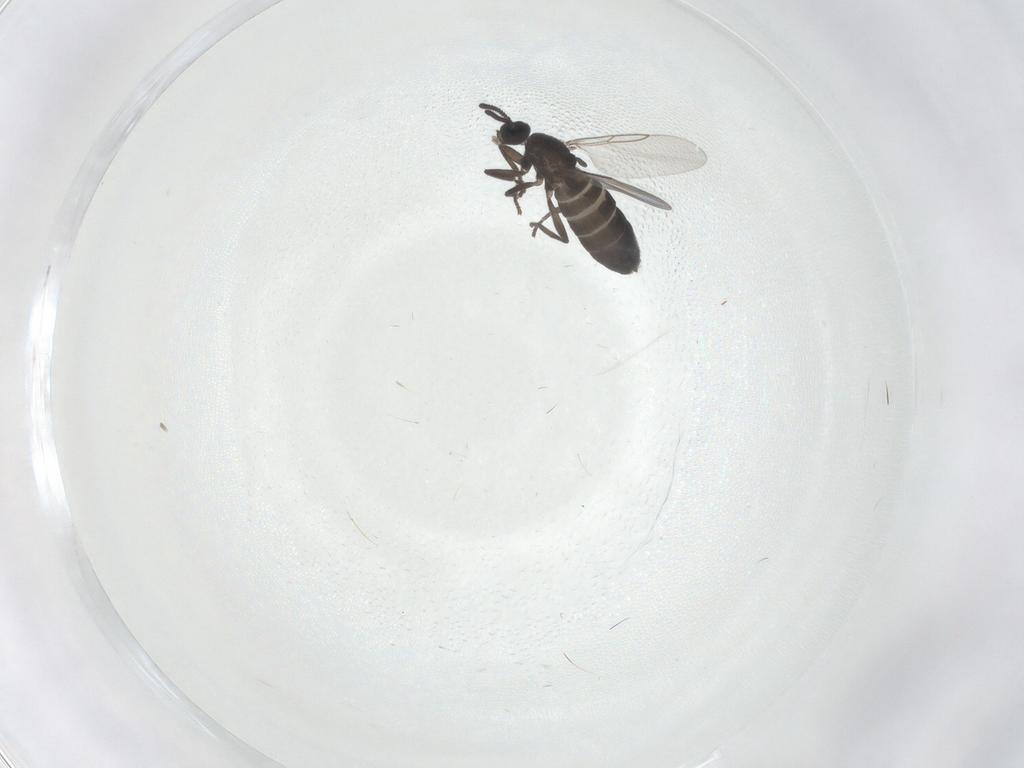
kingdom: Animalia
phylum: Arthropoda
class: Insecta
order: Diptera
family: Scatopsidae
